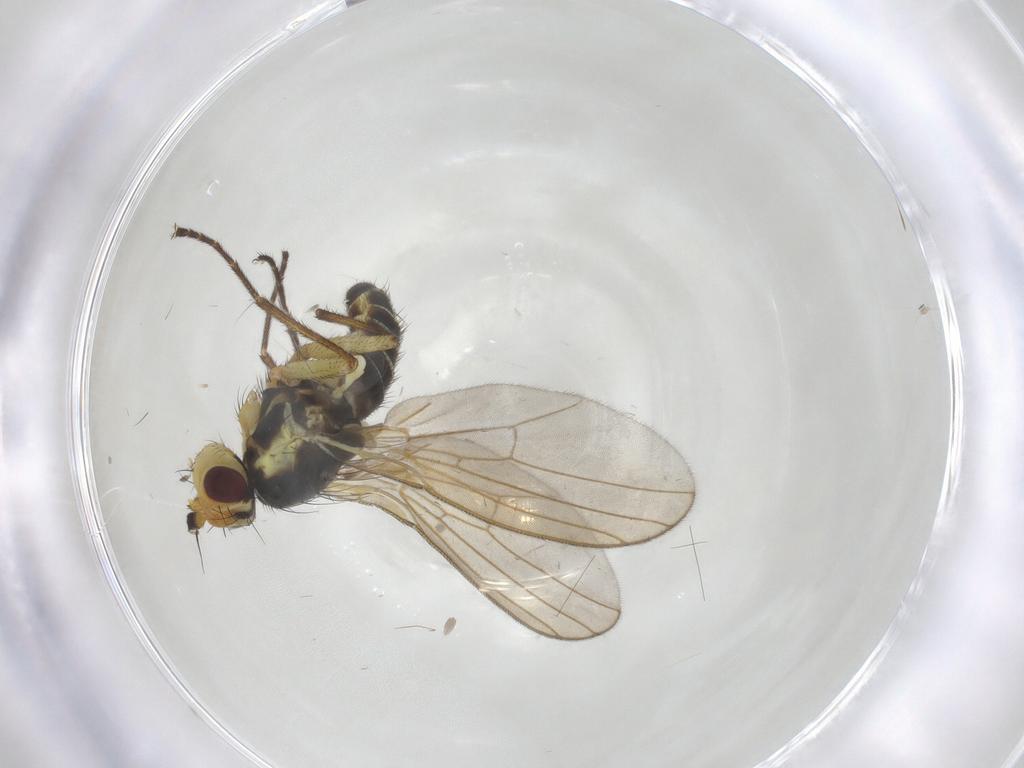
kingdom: Animalia
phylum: Arthropoda
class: Insecta
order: Diptera
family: Agromyzidae
